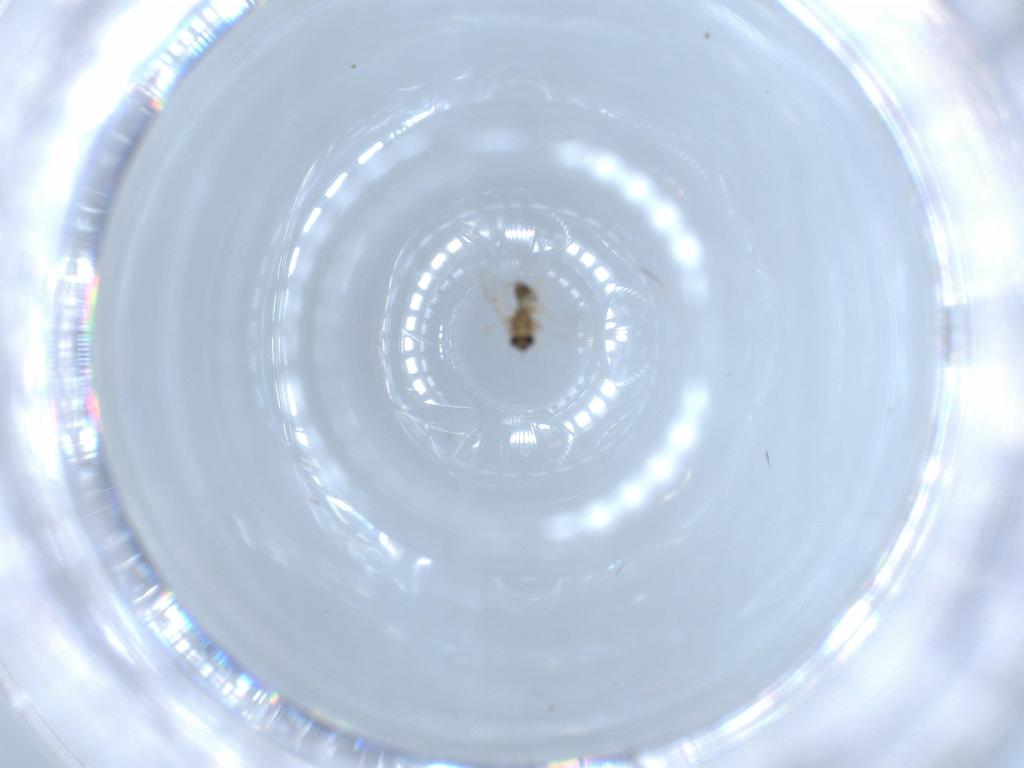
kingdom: Animalia
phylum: Arthropoda
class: Insecta
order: Diptera
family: Chironomidae
